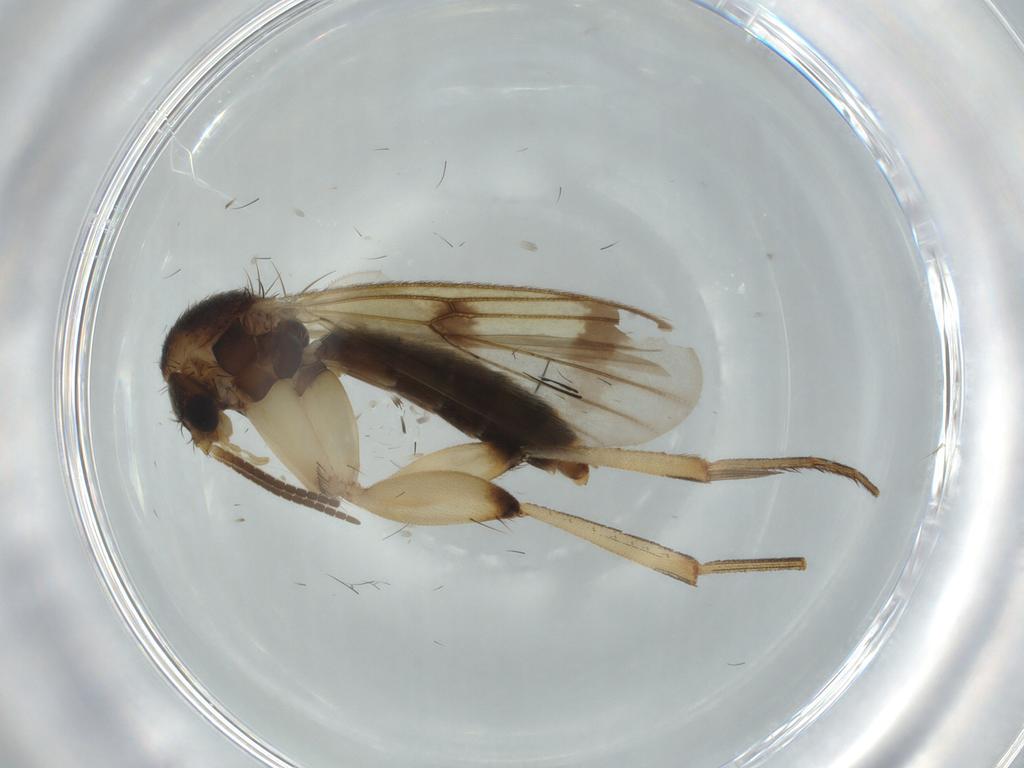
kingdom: Animalia
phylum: Arthropoda
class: Insecta
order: Diptera
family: Mycetophilidae
